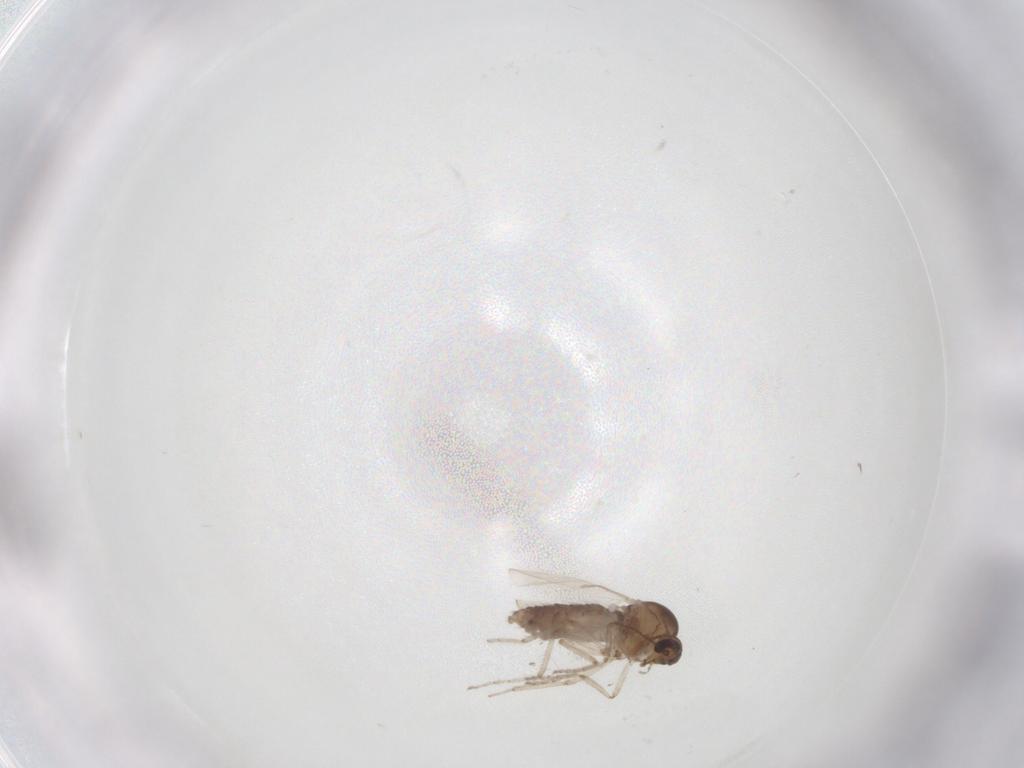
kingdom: Animalia
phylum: Arthropoda
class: Insecta
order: Diptera
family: Ceratopogonidae
